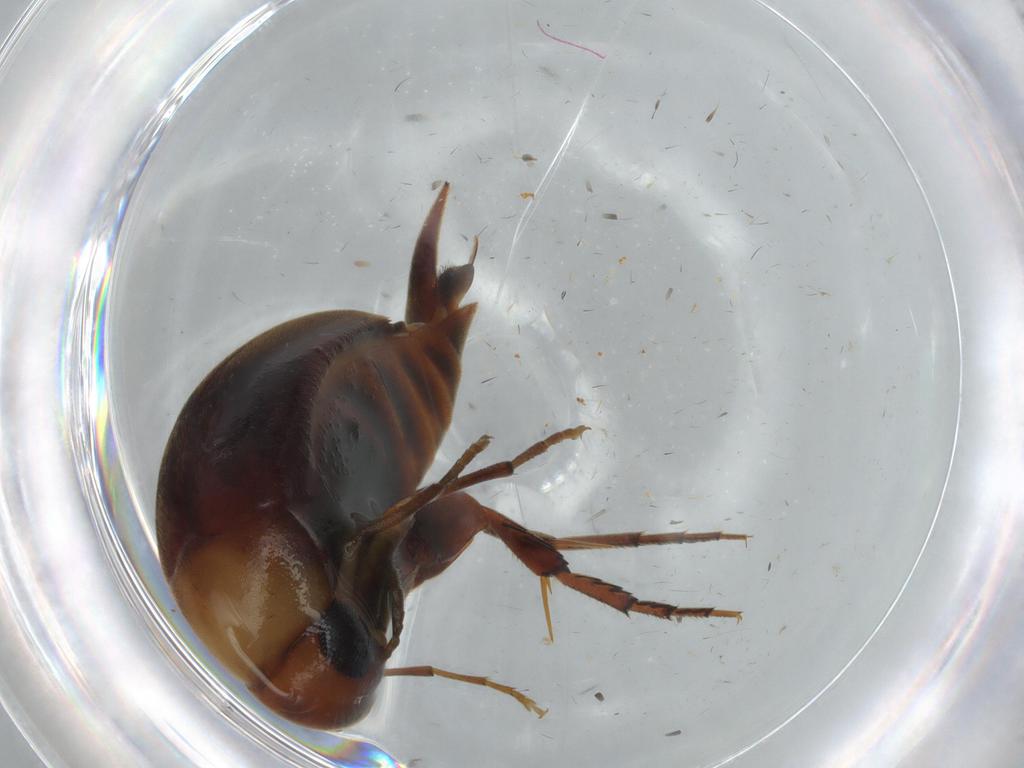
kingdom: Animalia
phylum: Arthropoda
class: Insecta
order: Coleoptera
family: Mordellidae
